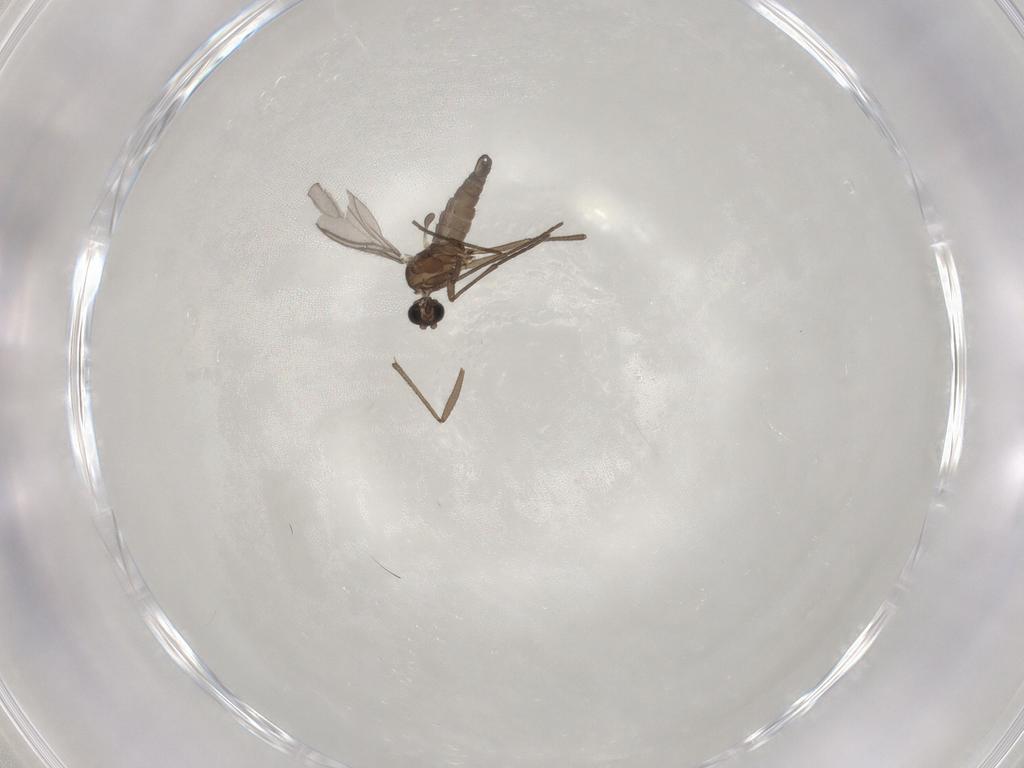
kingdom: Animalia
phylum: Arthropoda
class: Insecta
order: Diptera
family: Sciaridae
